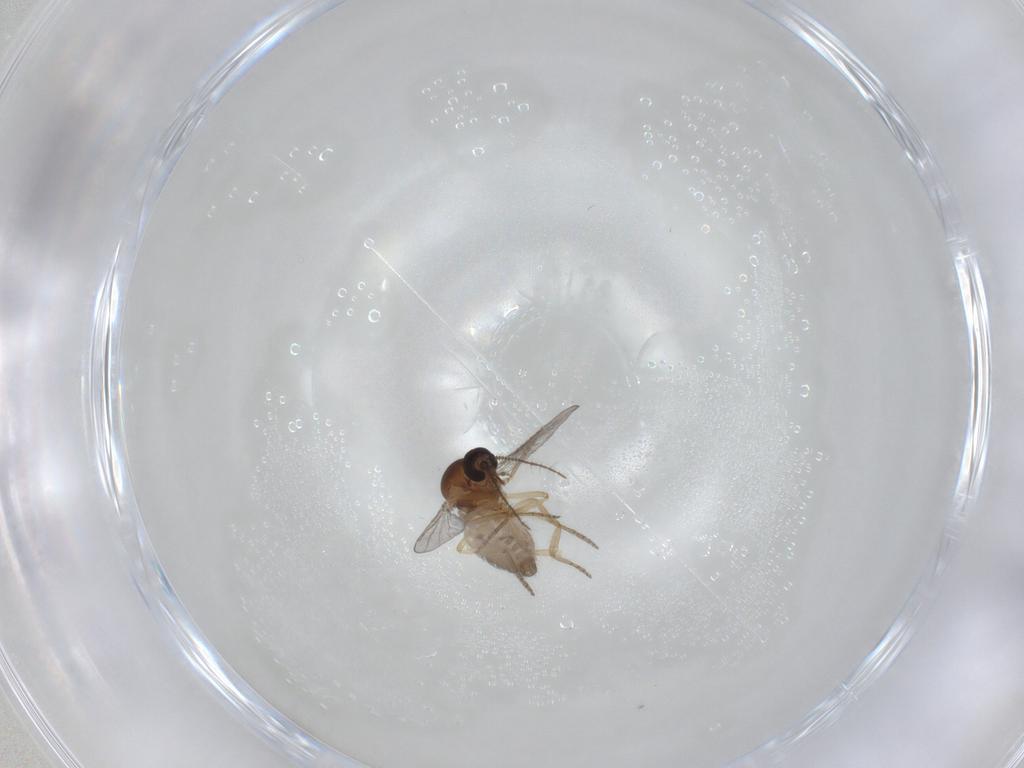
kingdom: Animalia
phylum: Arthropoda
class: Insecta
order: Diptera
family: Ceratopogonidae
